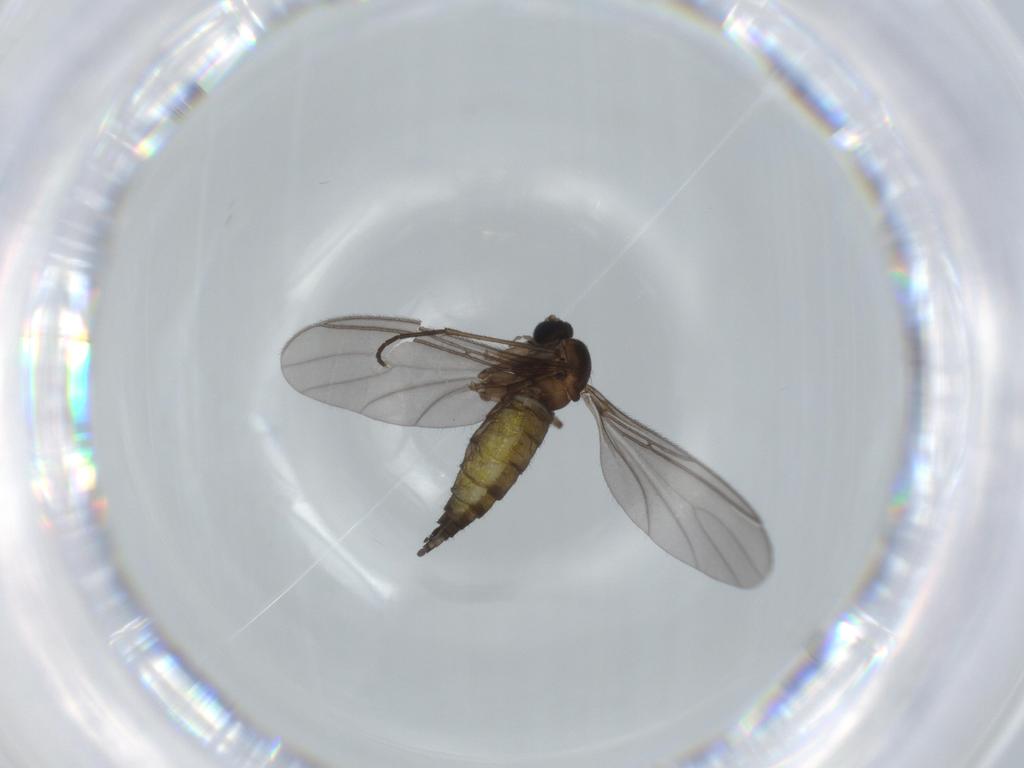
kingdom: Animalia
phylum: Arthropoda
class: Insecta
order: Diptera
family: Sciaridae
